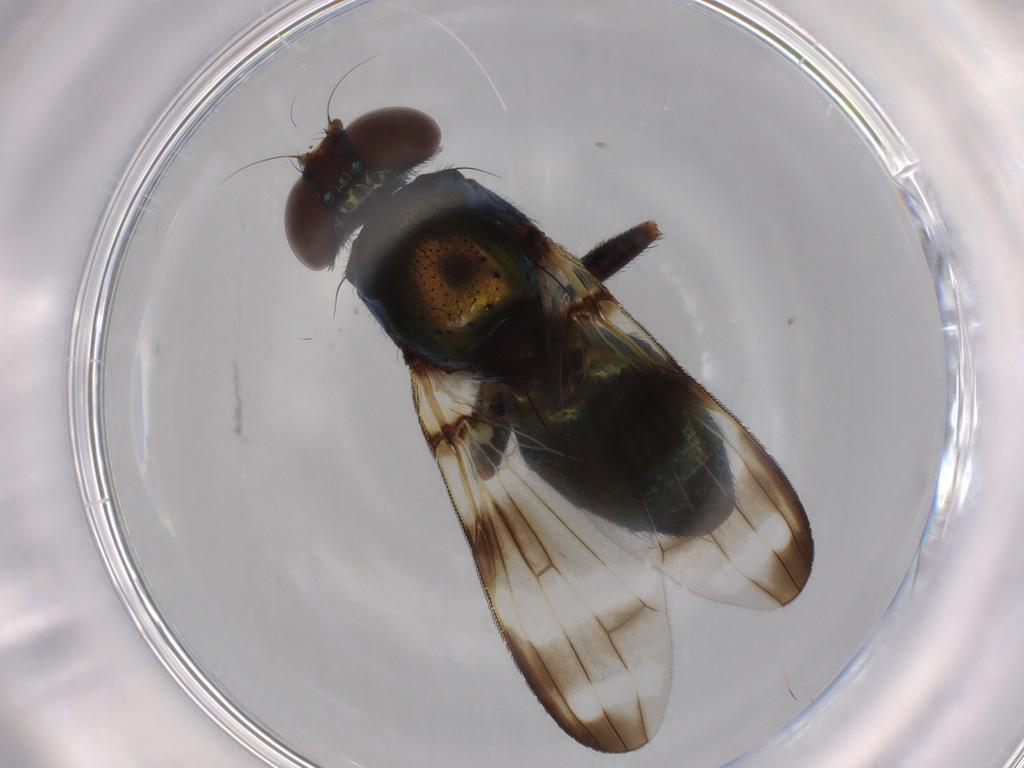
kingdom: Animalia
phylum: Arthropoda
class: Insecta
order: Diptera
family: Ulidiidae
